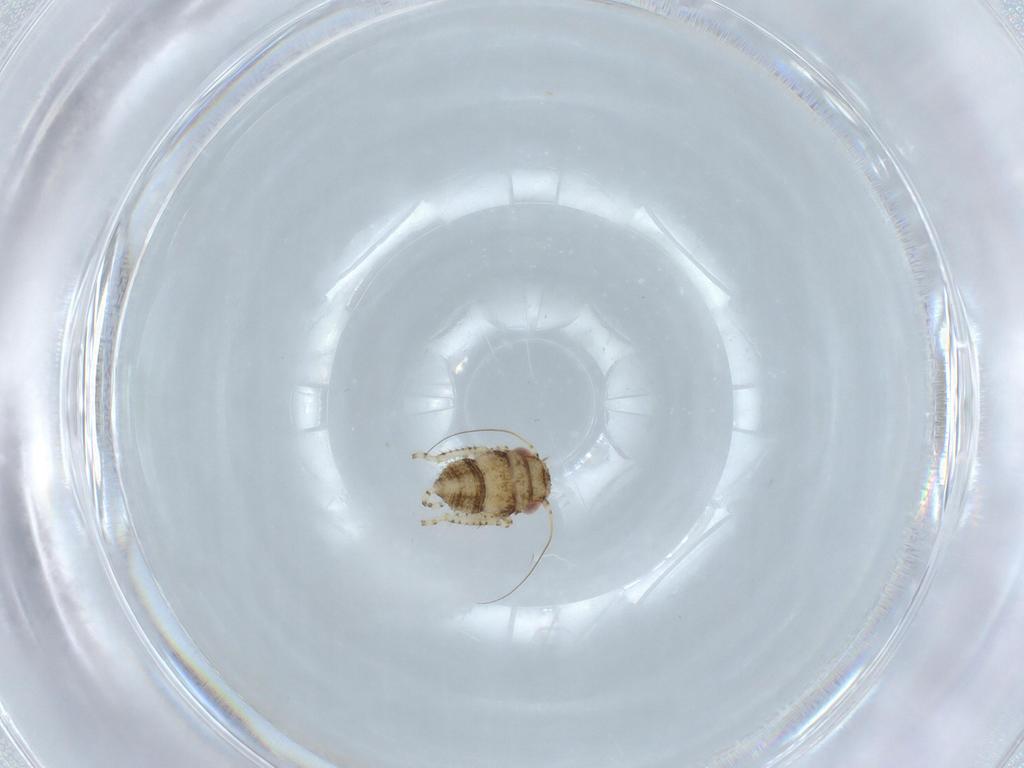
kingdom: Animalia
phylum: Arthropoda
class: Insecta
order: Hemiptera
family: Cicadellidae
